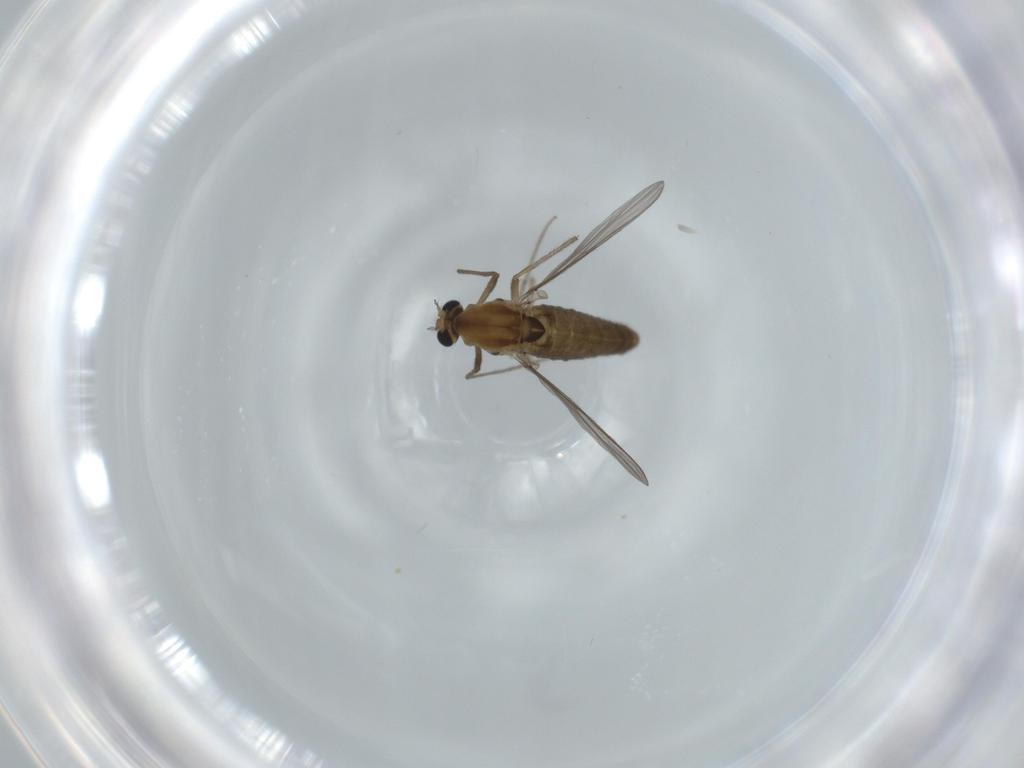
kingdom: Animalia
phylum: Arthropoda
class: Insecta
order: Diptera
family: Chironomidae
